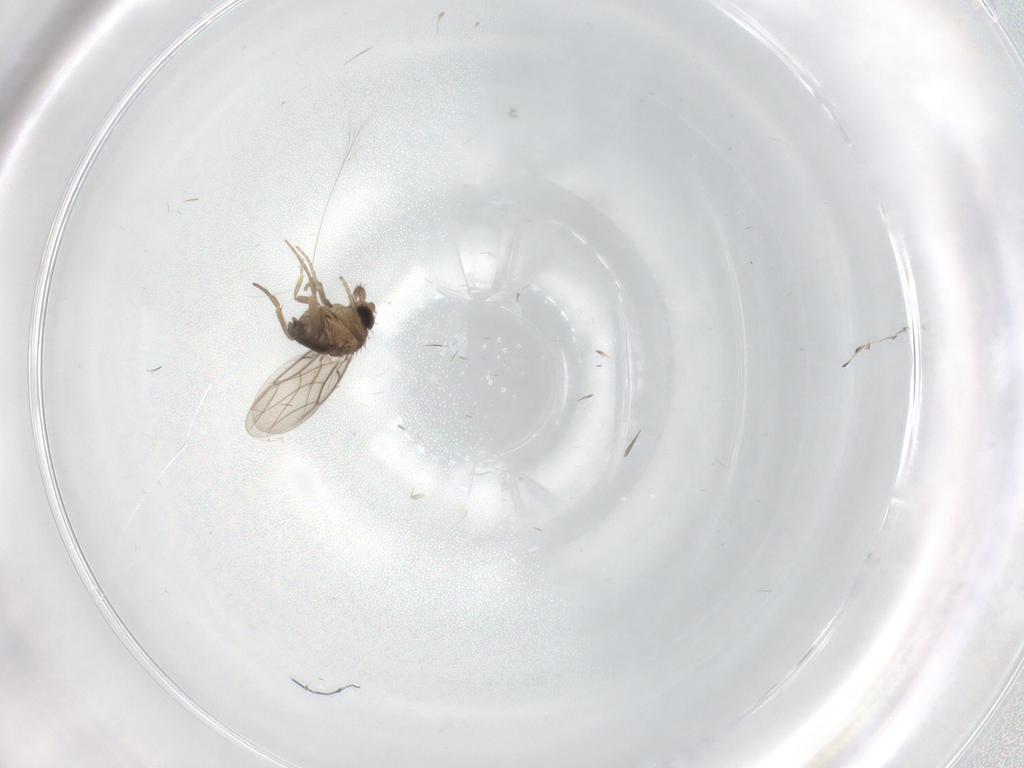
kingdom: Animalia
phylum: Arthropoda
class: Insecta
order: Diptera
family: Phoridae
